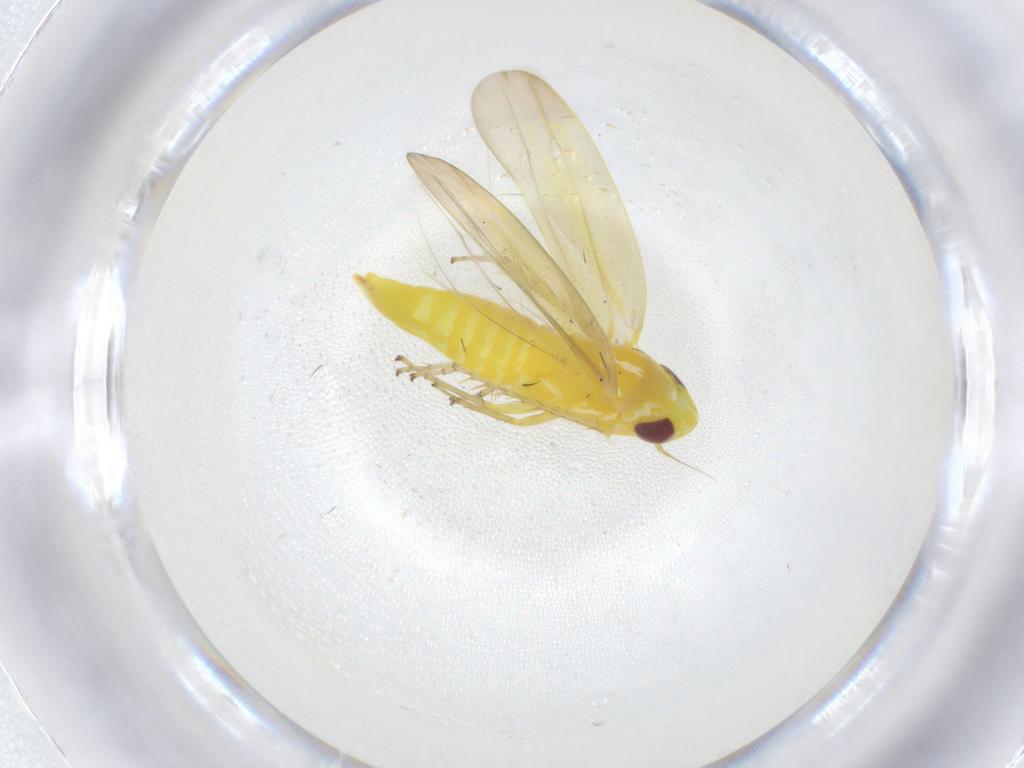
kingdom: Animalia
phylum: Arthropoda
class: Insecta
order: Hemiptera
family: Cicadellidae
